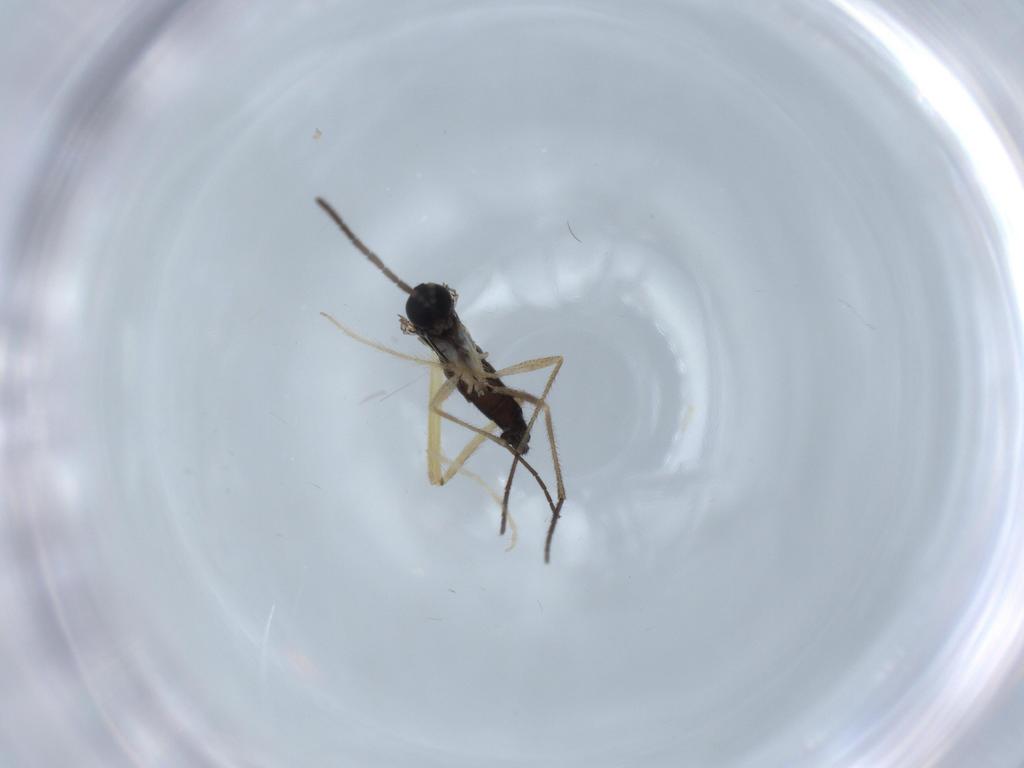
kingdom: Animalia
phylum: Arthropoda
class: Insecta
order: Diptera
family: Sciaridae
